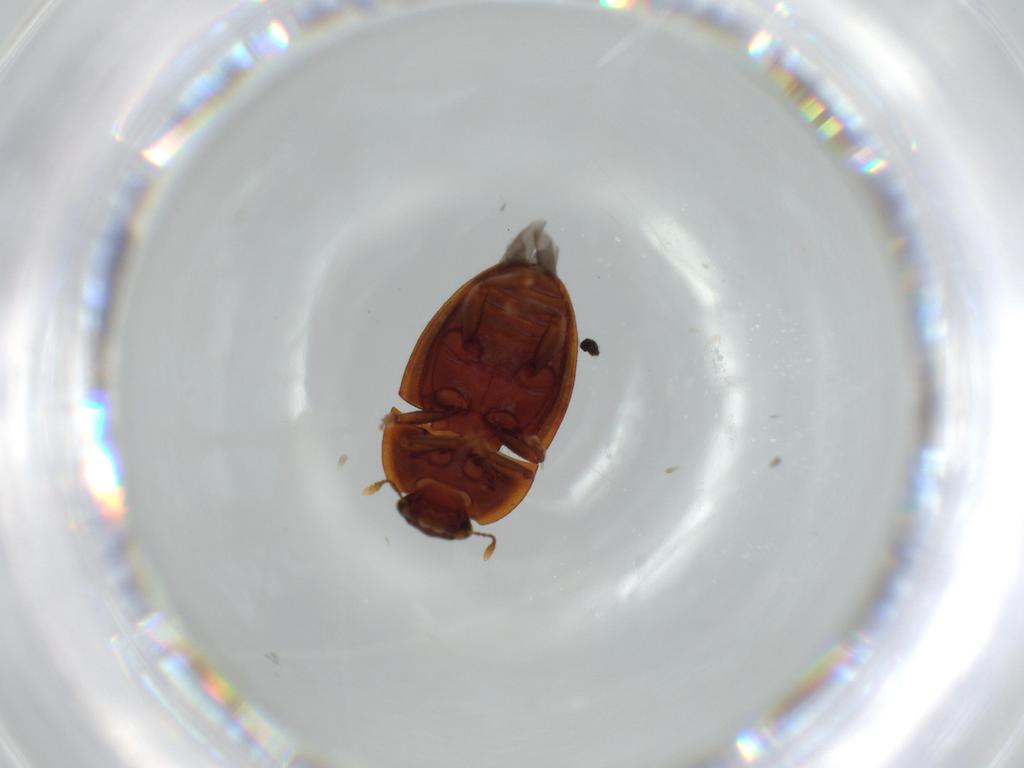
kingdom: Animalia
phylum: Arthropoda
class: Insecta
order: Coleoptera
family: Nitidulidae
